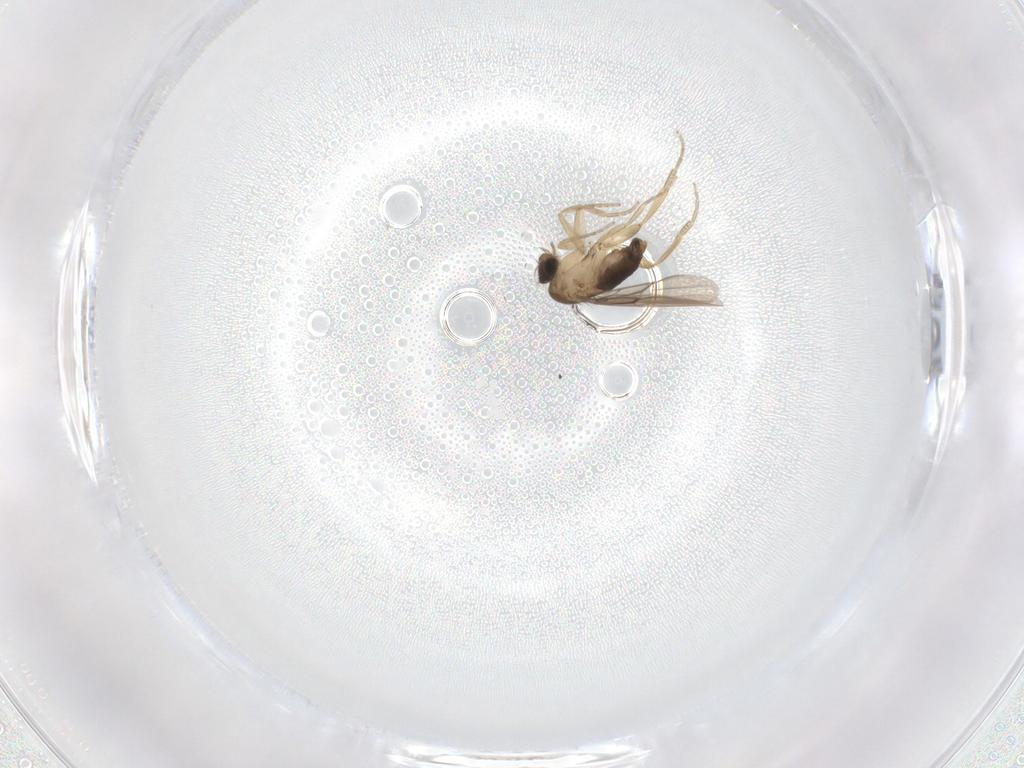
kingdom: Animalia
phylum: Arthropoda
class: Insecta
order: Diptera
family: Phoridae
